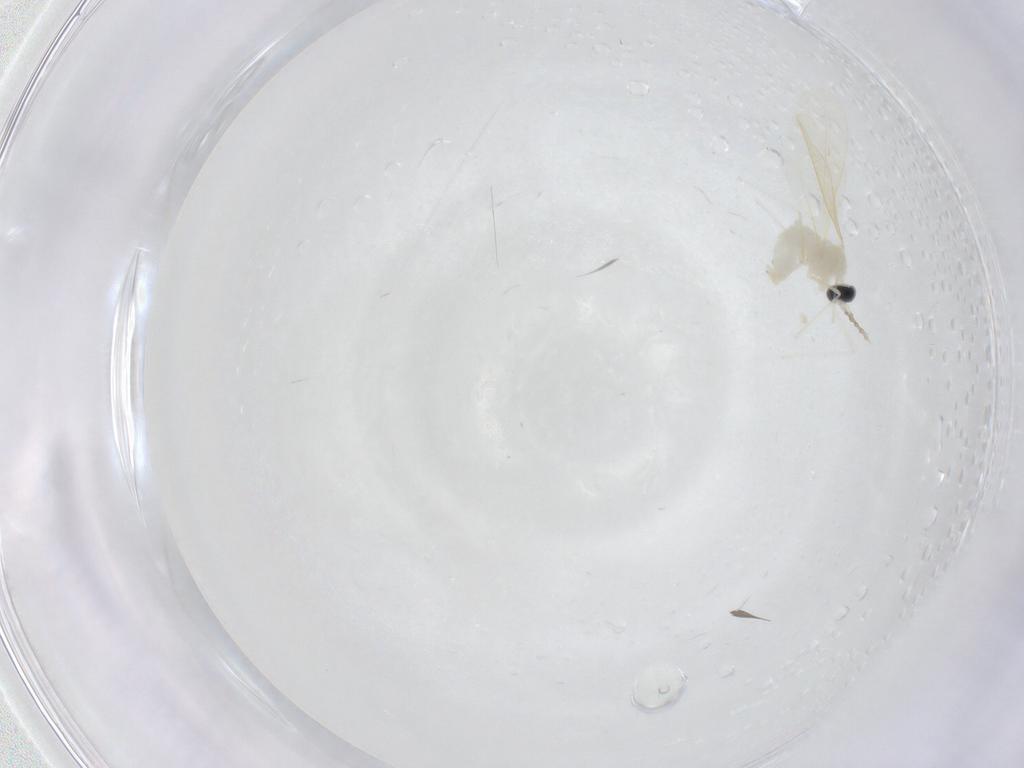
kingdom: Animalia
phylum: Arthropoda
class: Insecta
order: Diptera
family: Cecidomyiidae
